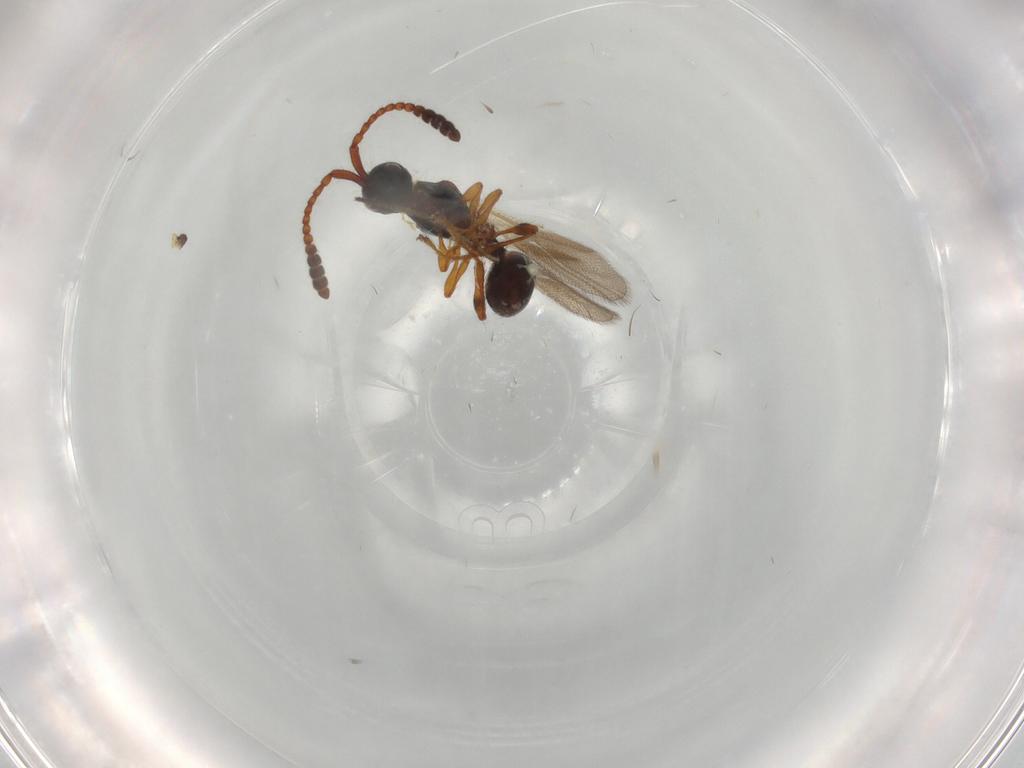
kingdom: Animalia
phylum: Arthropoda
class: Insecta
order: Hymenoptera
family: Diapriidae
